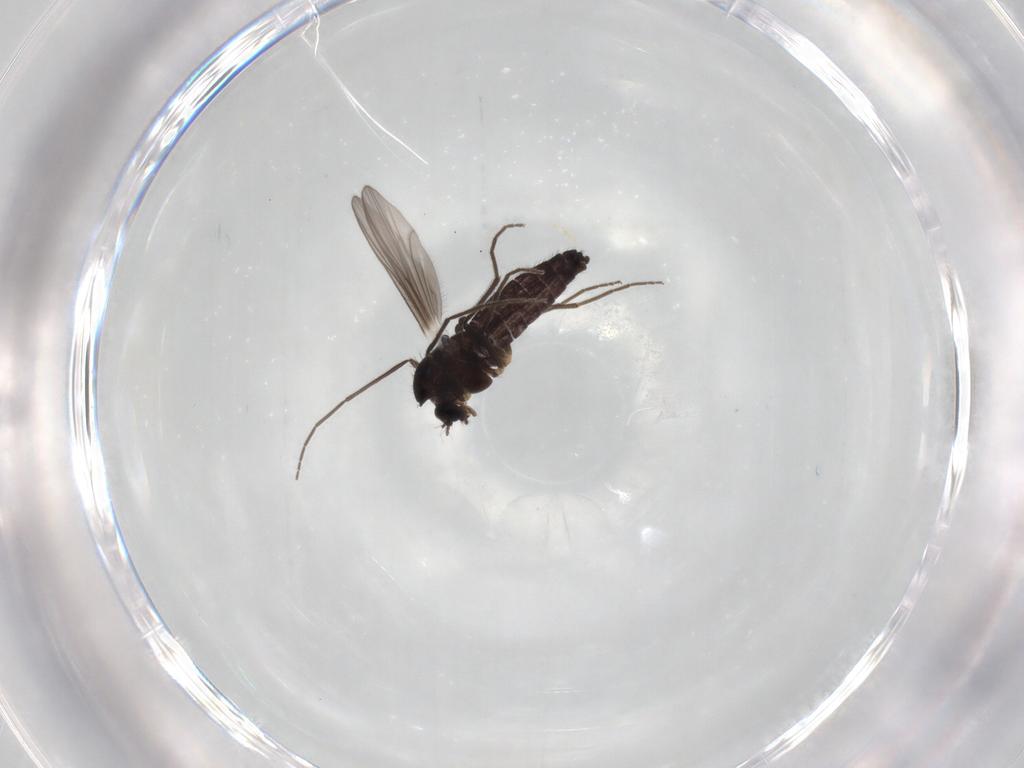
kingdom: Animalia
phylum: Arthropoda
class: Insecta
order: Diptera
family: Chironomidae
